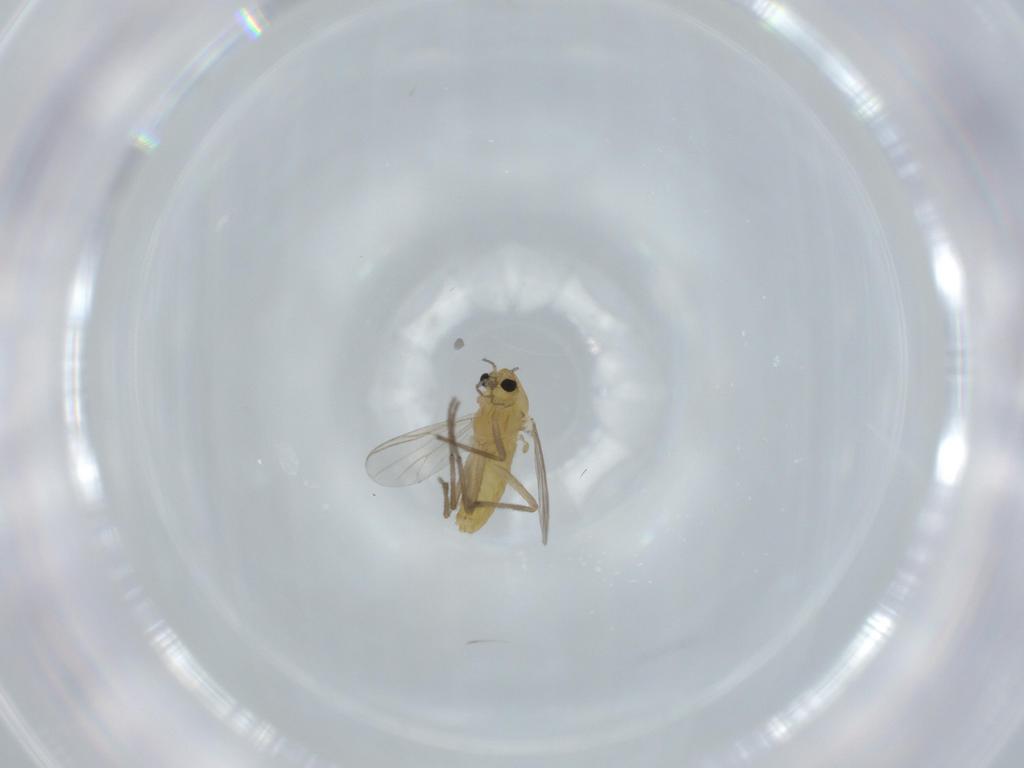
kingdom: Animalia
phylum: Arthropoda
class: Insecta
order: Diptera
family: Chironomidae
